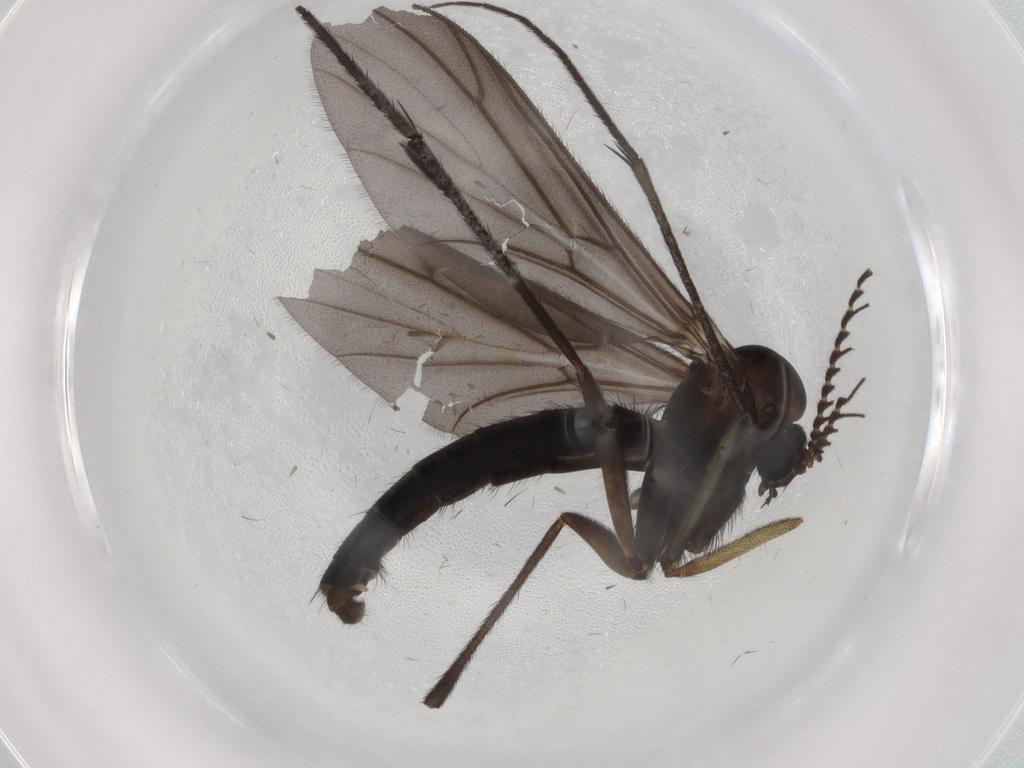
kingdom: Animalia
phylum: Arthropoda
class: Insecta
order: Diptera
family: Sciaridae
